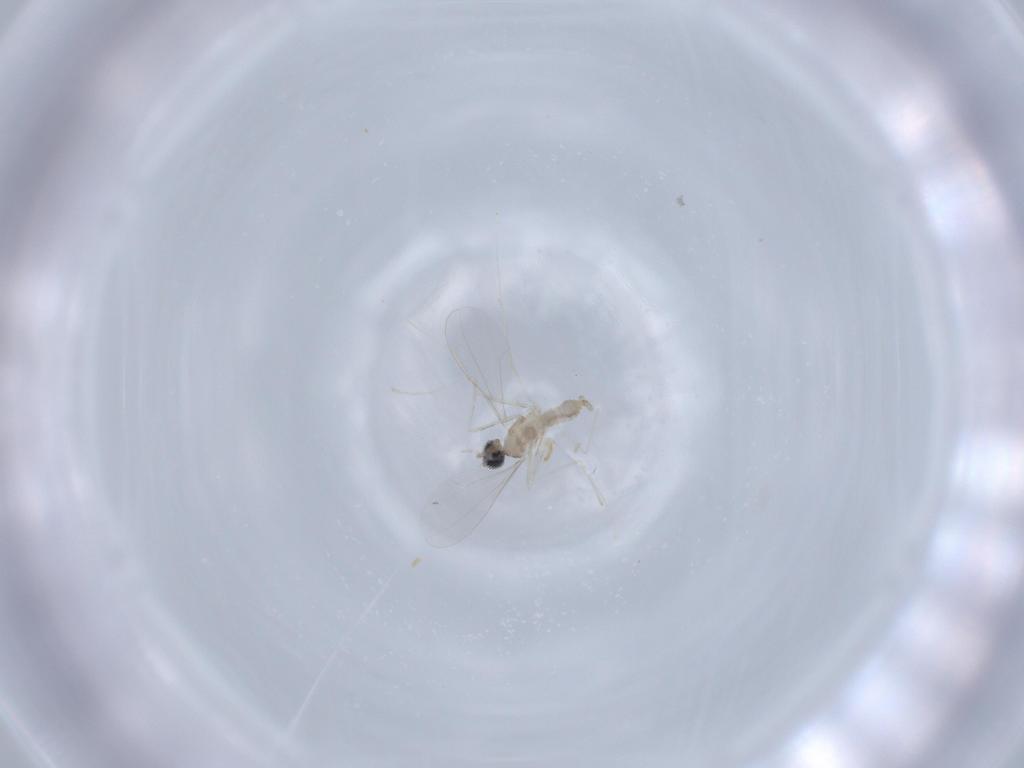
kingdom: Animalia
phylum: Arthropoda
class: Insecta
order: Diptera
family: Cecidomyiidae
